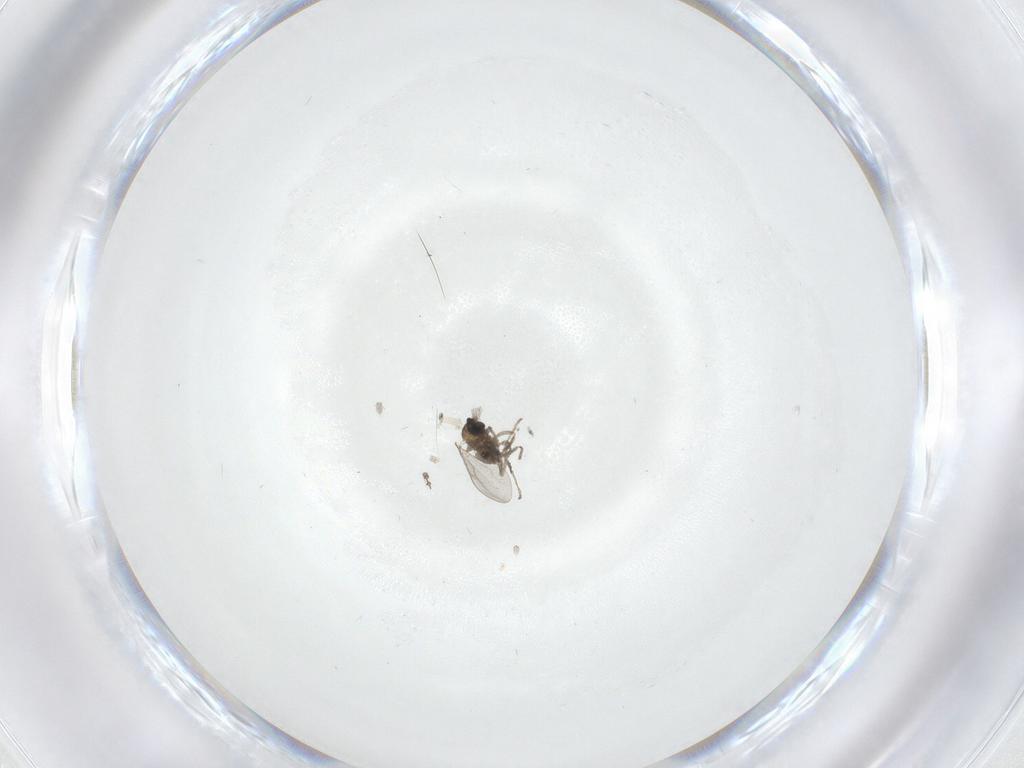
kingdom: Animalia
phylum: Arthropoda
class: Insecta
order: Diptera
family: Cecidomyiidae
